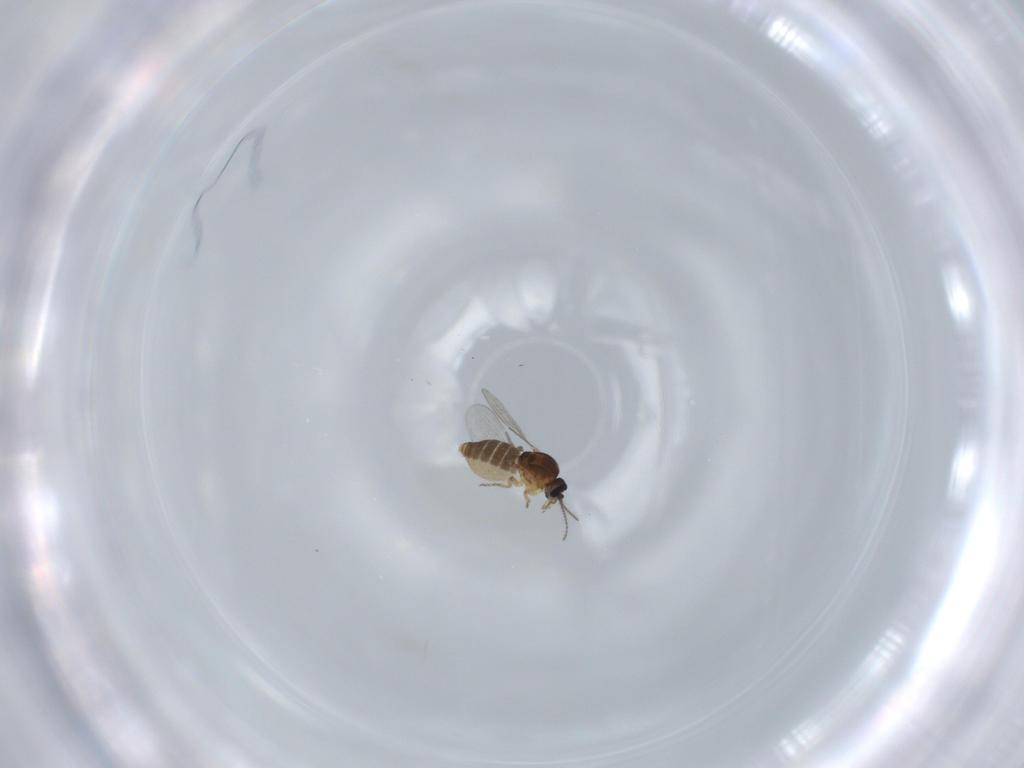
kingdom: Animalia
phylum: Arthropoda
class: Insecta
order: Diptera
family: Ceratopogonidae
